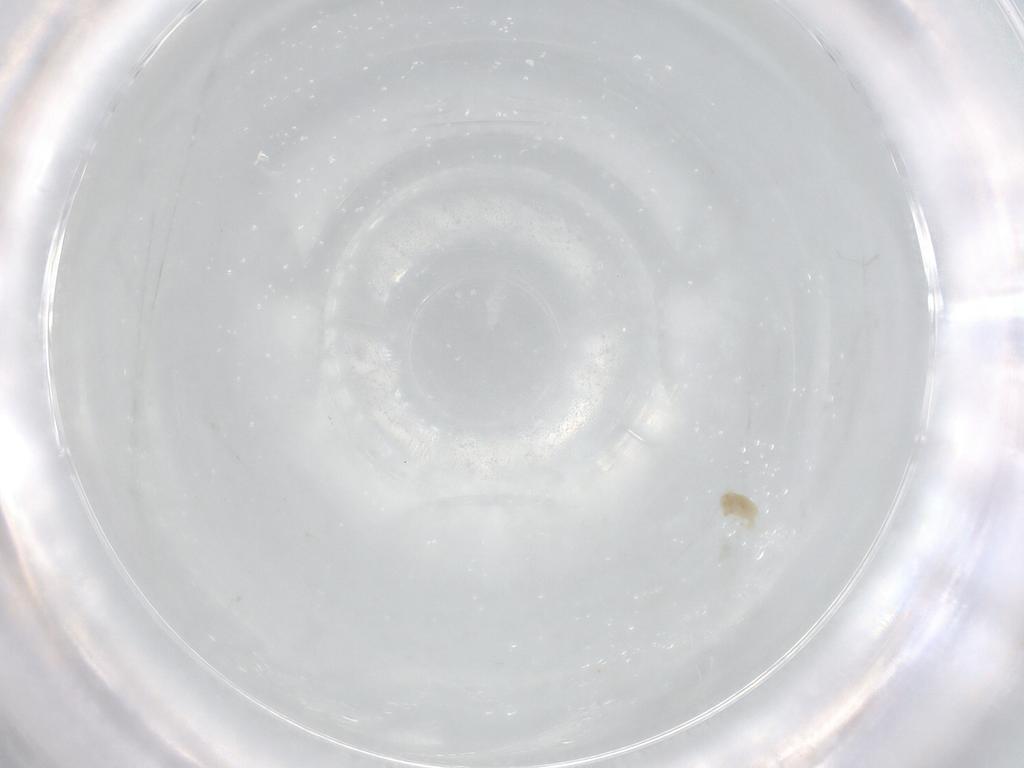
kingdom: Animalia
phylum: Arthropoda
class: Arachnida
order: Trombidiformes
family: Eupodidae
